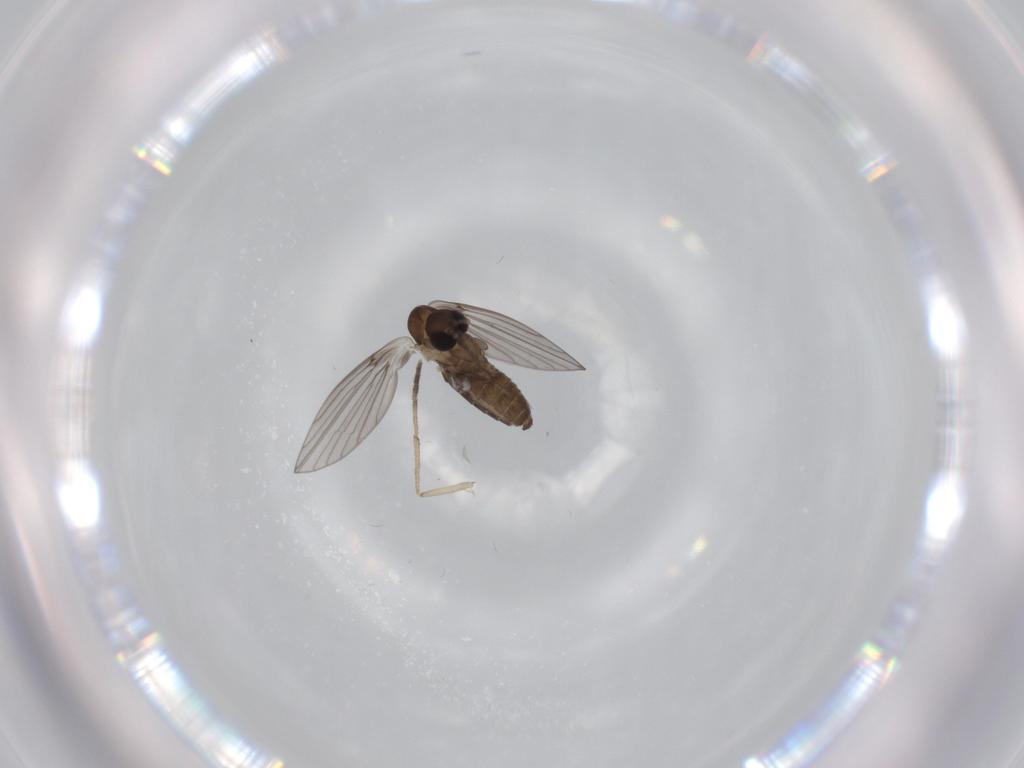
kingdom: Animalia
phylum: Arthropoda
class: Insecta
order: Diptera
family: Psychodidae
